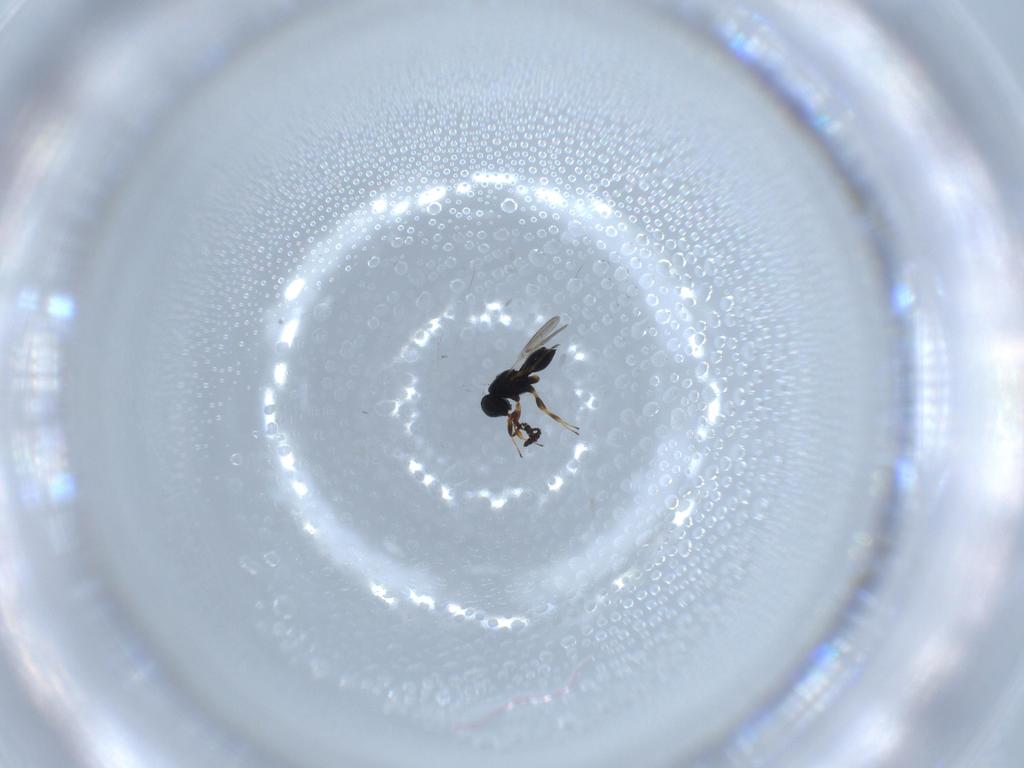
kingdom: Animalia
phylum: Arthropoda
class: Insecta
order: Hymenoptera
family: Scelionidae
